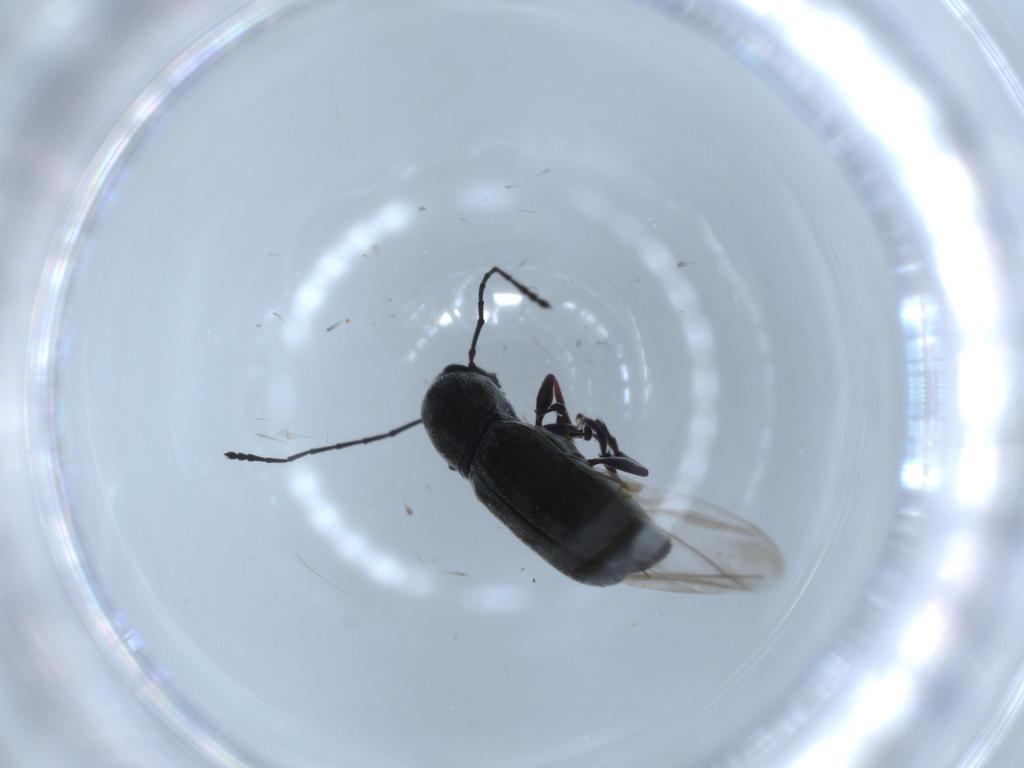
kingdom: Animalia
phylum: Arthropoda
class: Insecta
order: Coleoptera
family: Anthribidae
